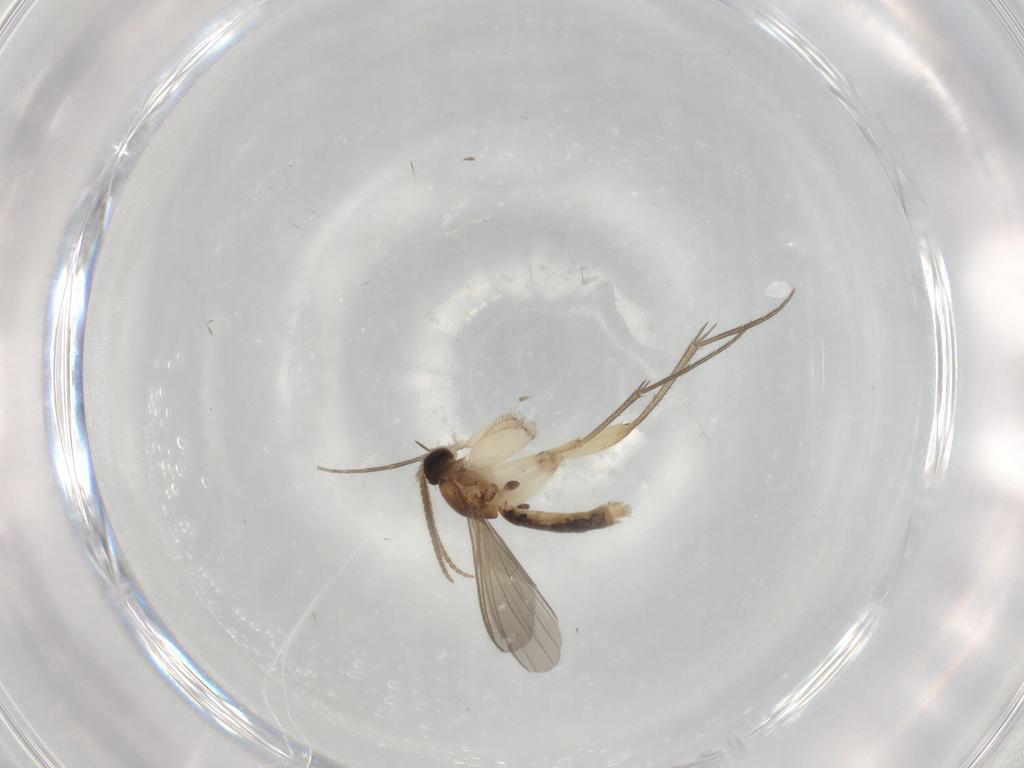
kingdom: Animalia
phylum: Arthropoda
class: Insecta
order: Diptera
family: Mycetophilidae
